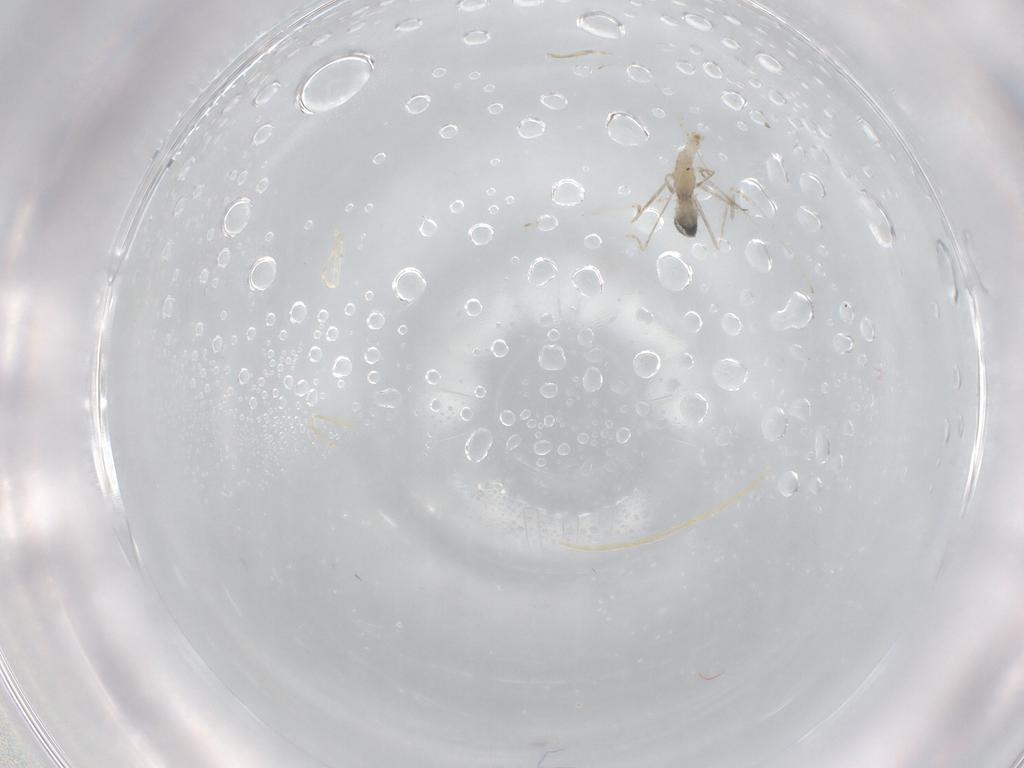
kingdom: Animalia
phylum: Arthropoda
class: Insecta
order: Diptera
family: Cecidomyiidae
